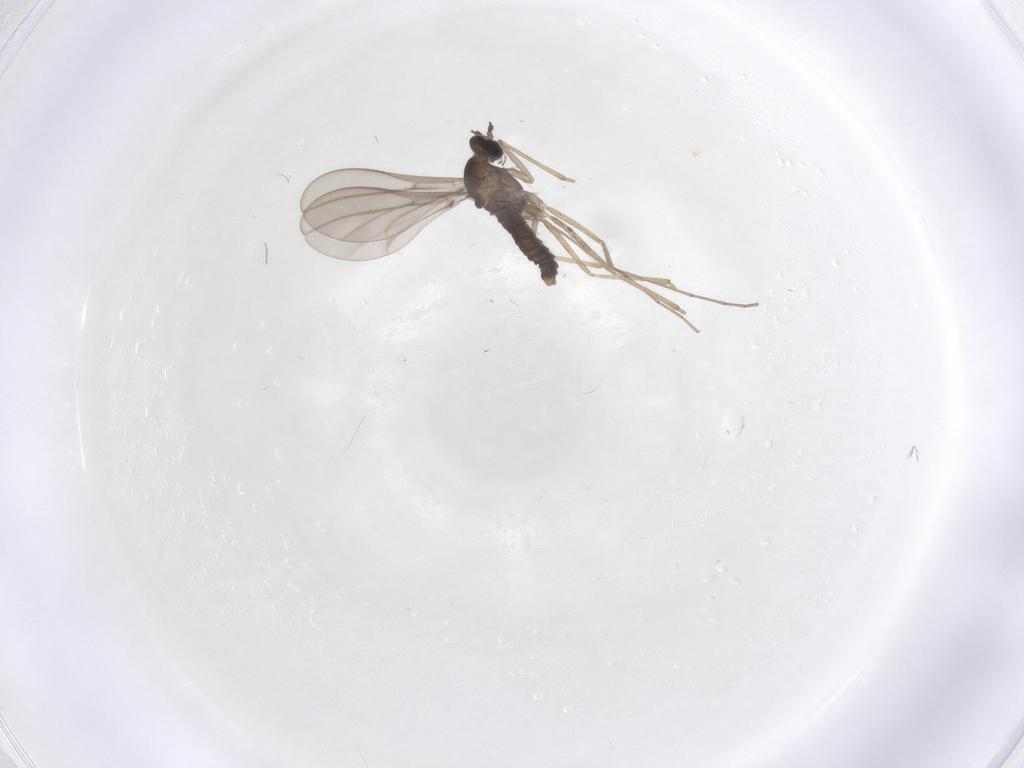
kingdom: Animalia
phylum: Arthropoda
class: Insecta
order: Diptera
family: Cecidomyiidae
